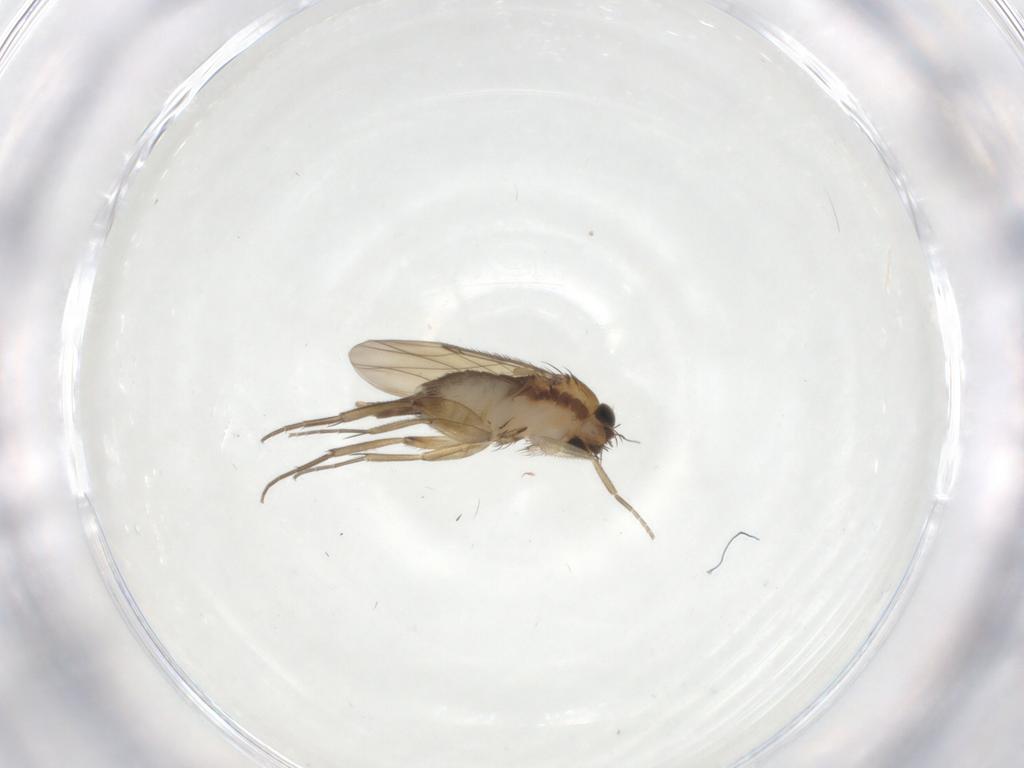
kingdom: Animalia
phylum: Arthropoda
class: Insecta
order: Diptera
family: Phoridae
